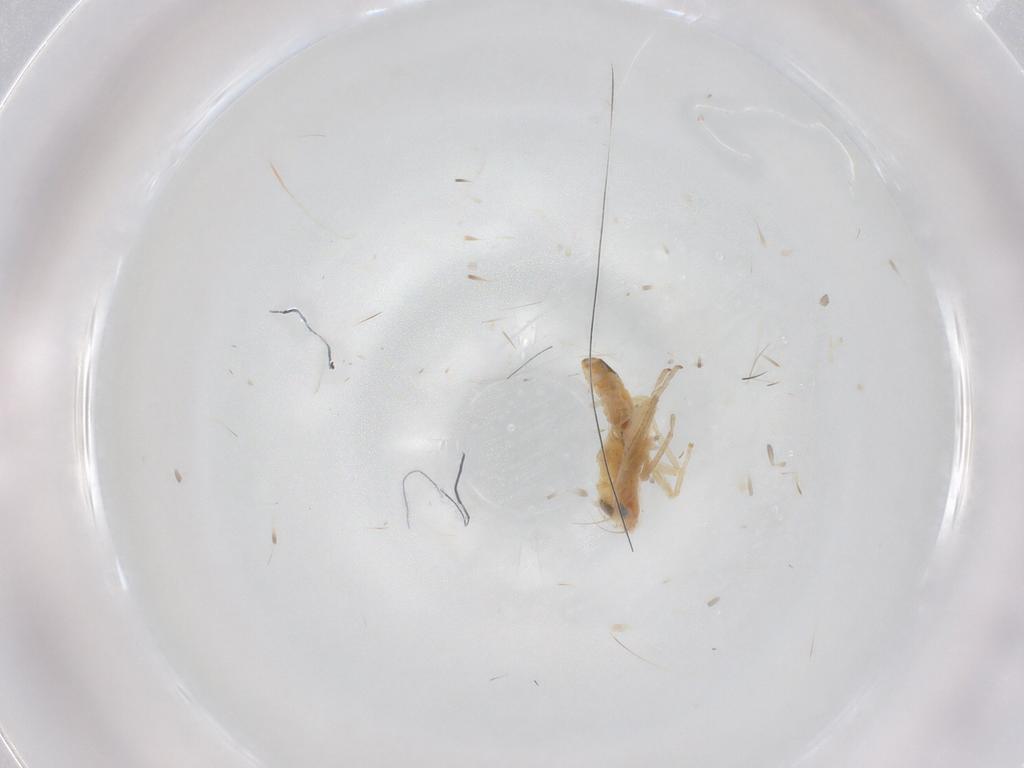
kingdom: Animalia
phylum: Arthropoda
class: Insecta
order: Hemiptera
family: Cicadellidae
